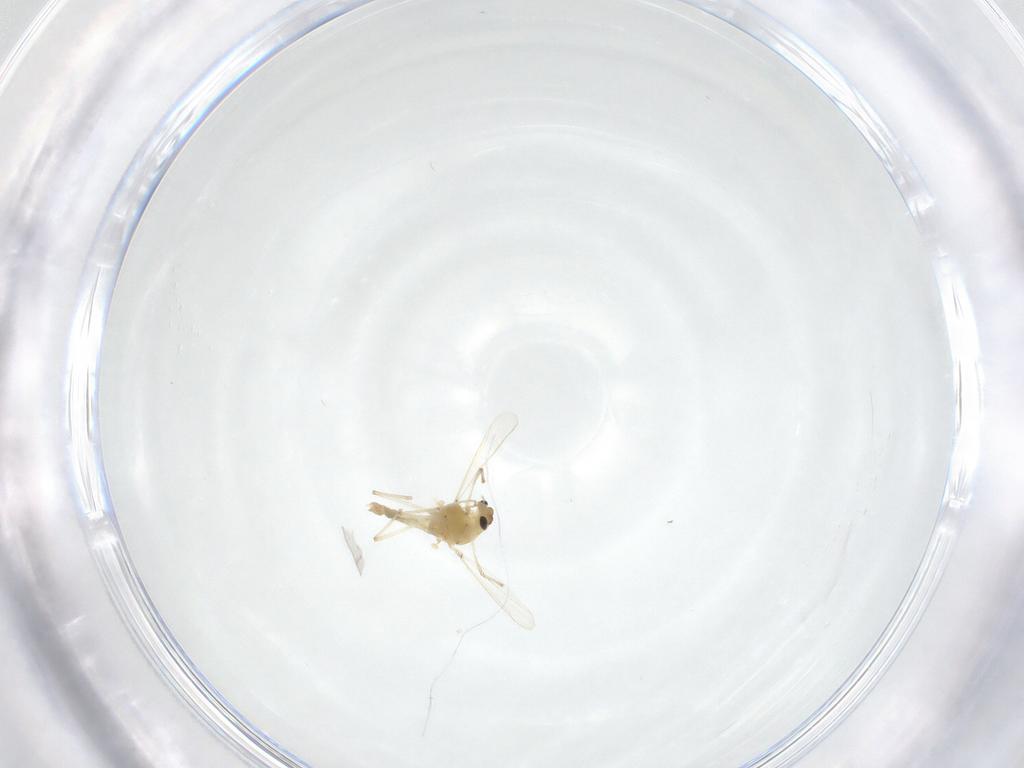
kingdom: Animalia
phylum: Arthropoda
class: Insecta
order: Diptera
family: Chironomidae
